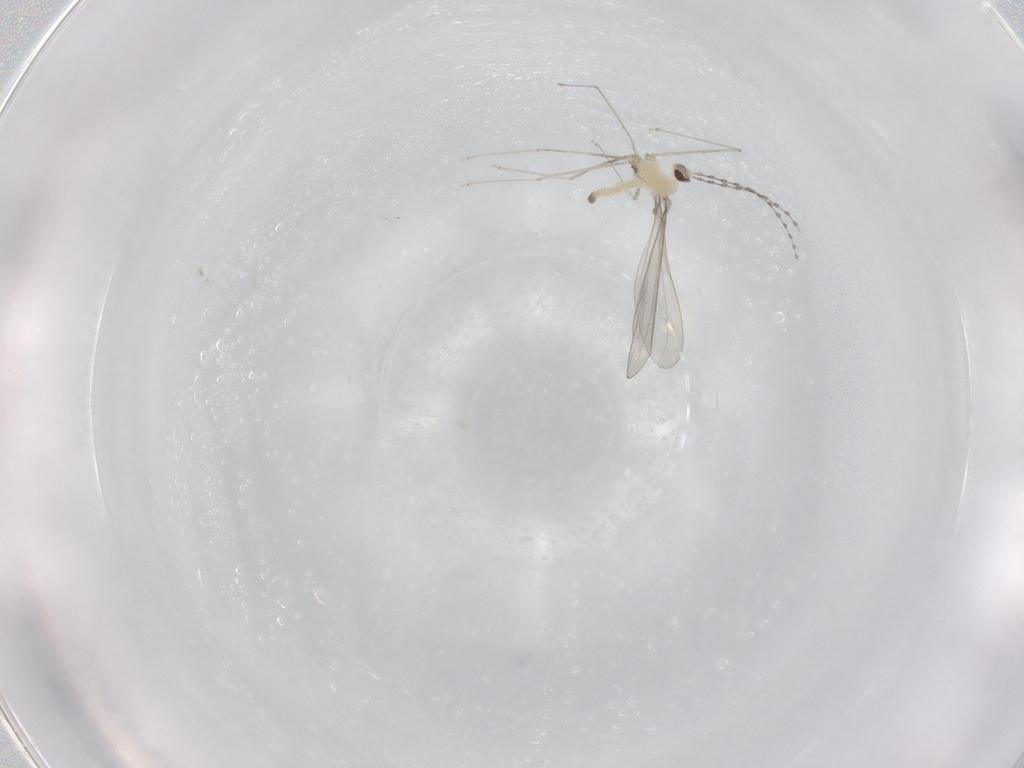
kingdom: Animalia
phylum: Arthropoda
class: Insecta
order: Diptera
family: Cecidomyiidae
